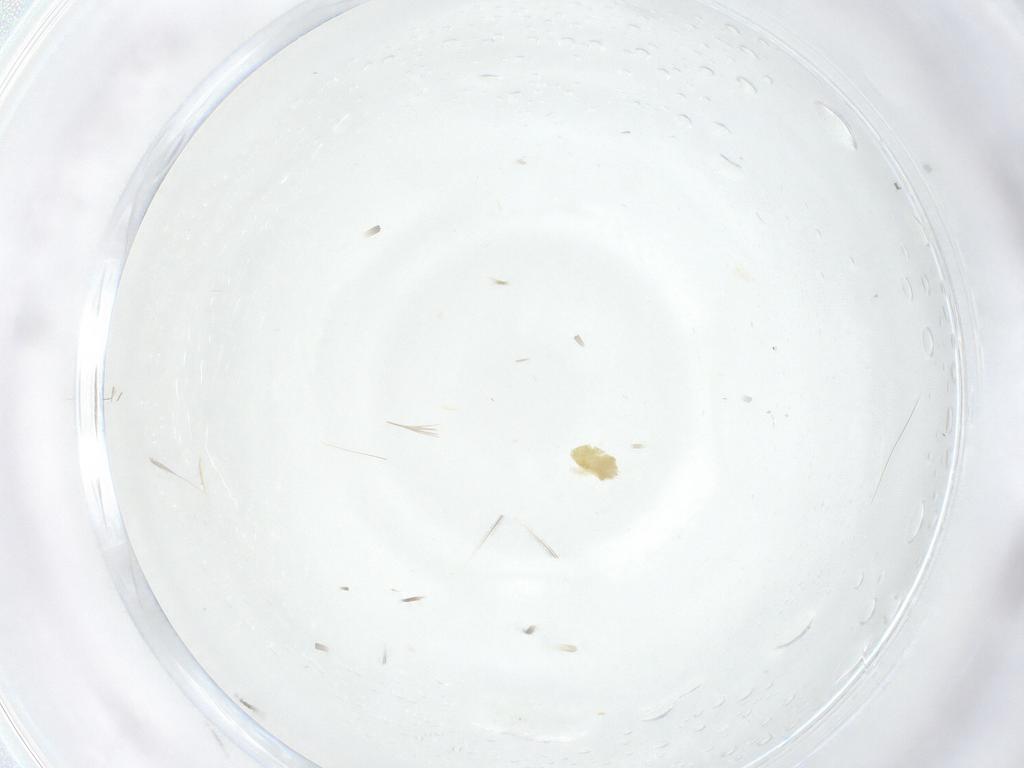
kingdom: Animalia
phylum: Arthropoda
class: Arachnida
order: Trombidiformes
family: Eupodidae
